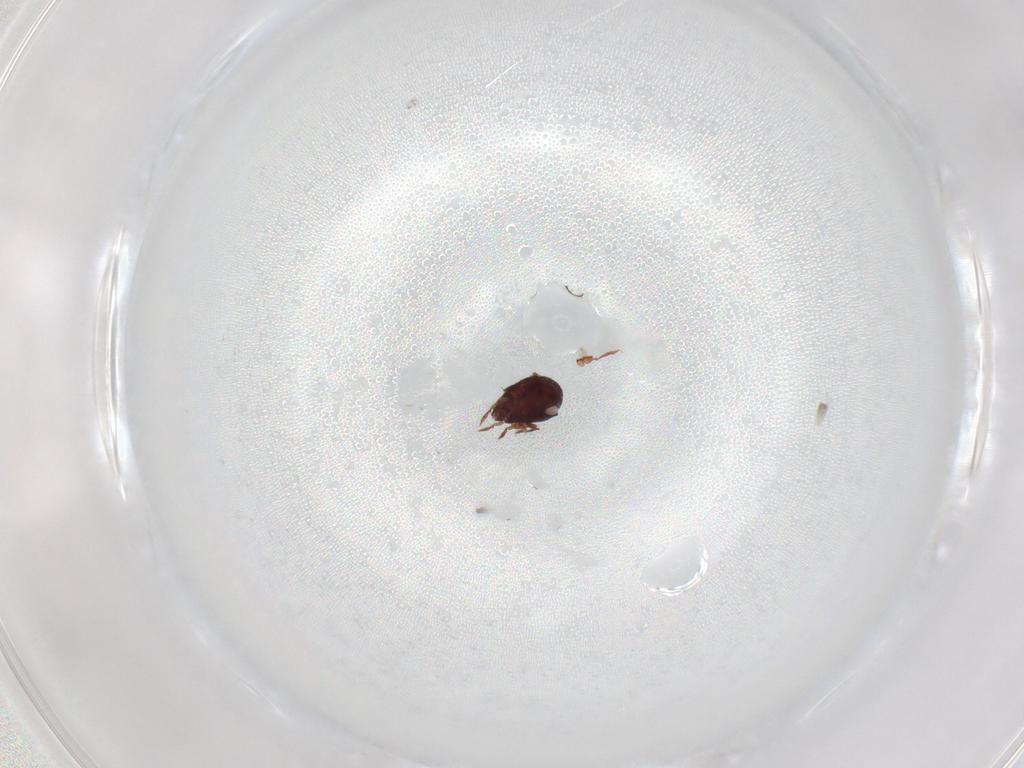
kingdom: Animalia
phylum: Arthropoda
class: Arachnida
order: Sarcoptiformes
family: Humerobatidae
